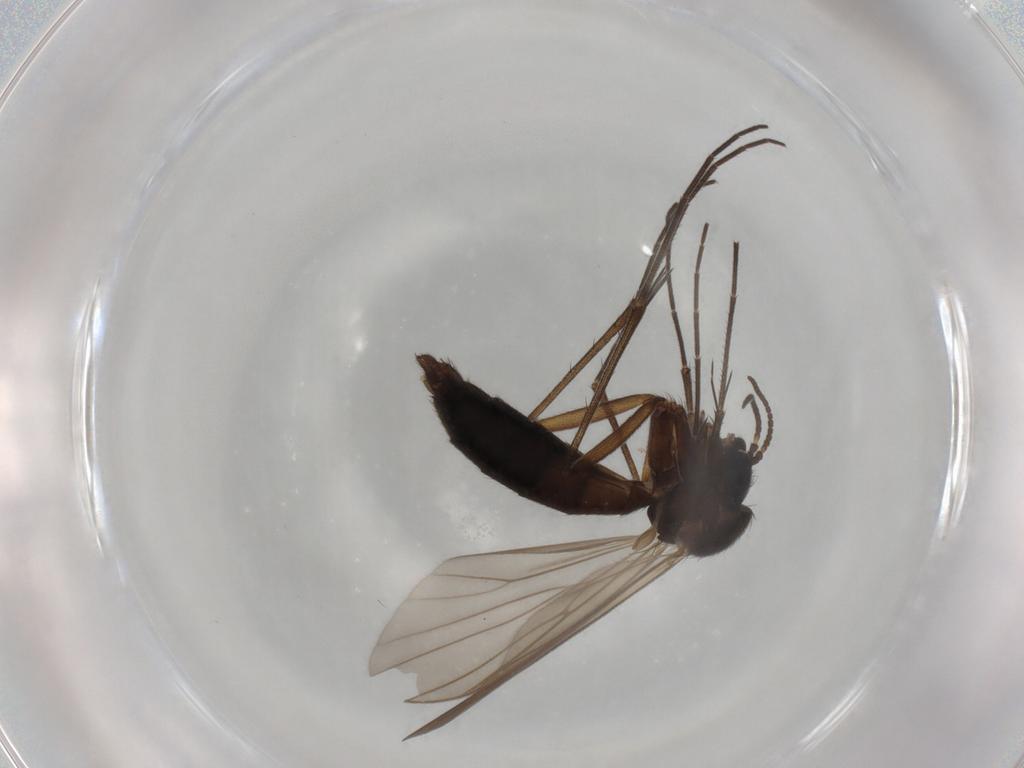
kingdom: Animalia
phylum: Arthropoda
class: Insecta
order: Diptera
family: Mycetophilidae
